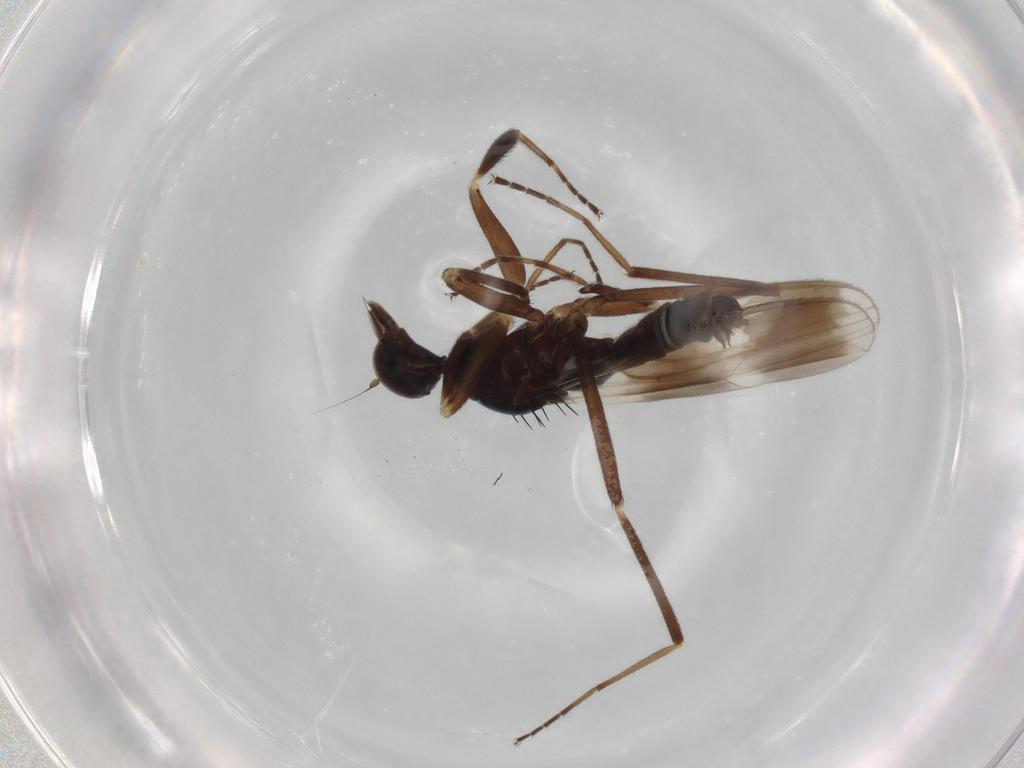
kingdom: Animalia
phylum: Arthropoda
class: Insecta
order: Diptera
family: Hybotidae
